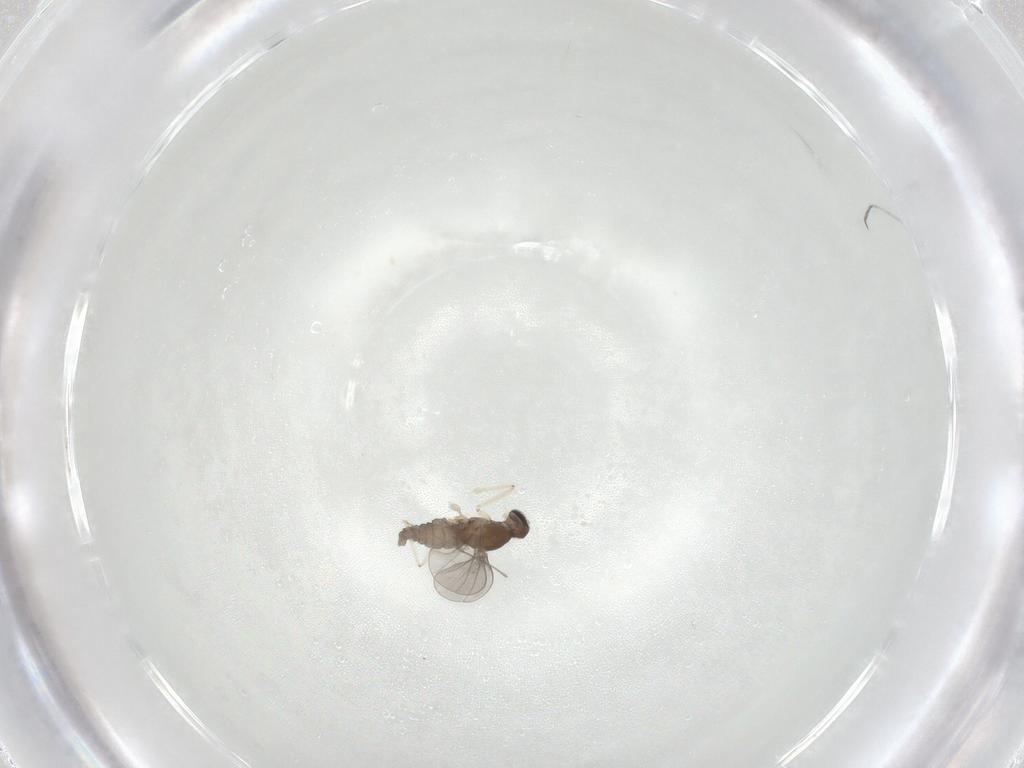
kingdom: Animalia
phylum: Arthropoda
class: Insecta
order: Diptera
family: Cecidomyiidae
